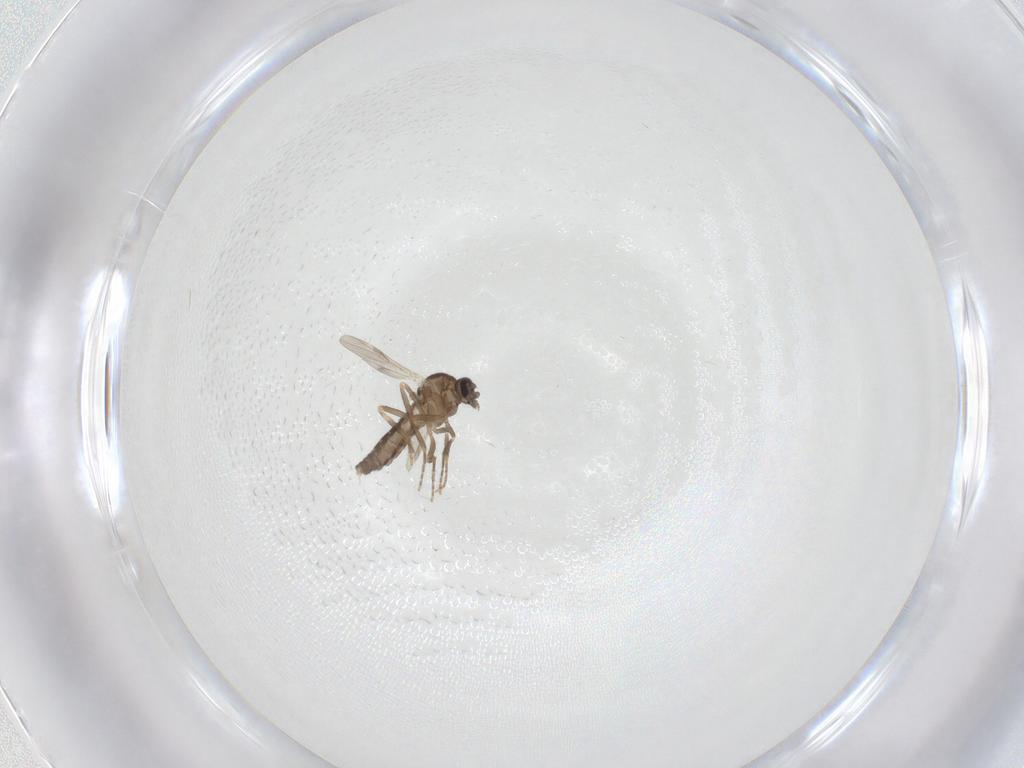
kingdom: Animalia
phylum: Arthropoda
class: Insecta
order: Diptera
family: Ceratopogonidae
